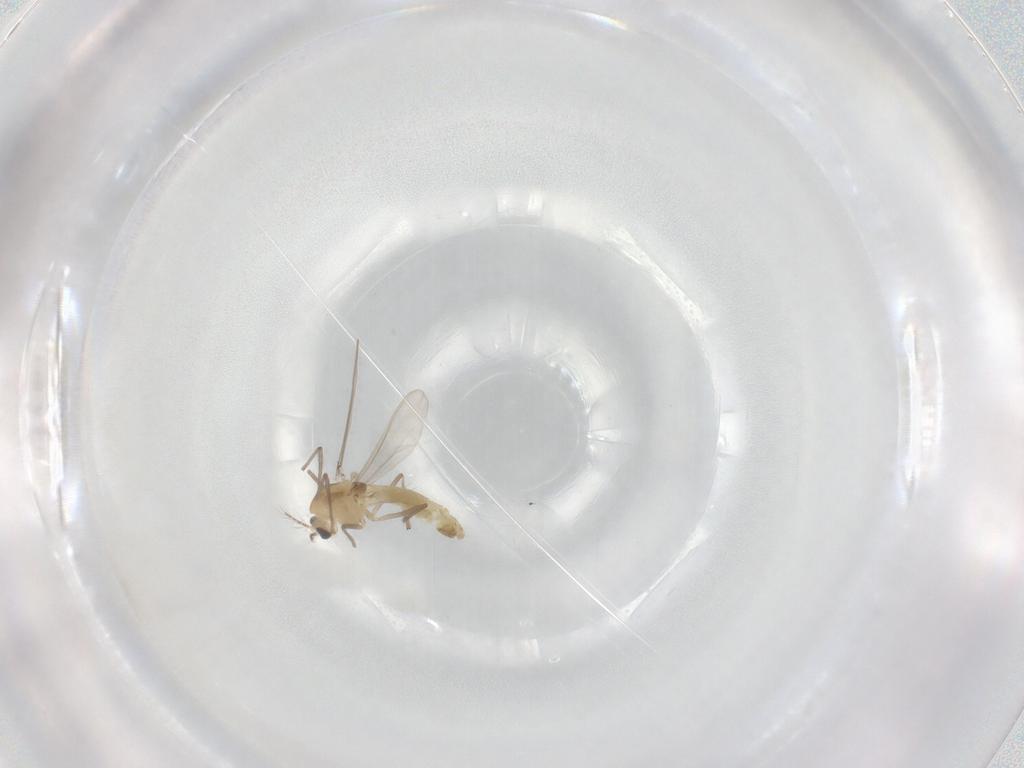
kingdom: Animalia
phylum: Arthropoda
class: Insecta
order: Diptera
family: Chironomidae
